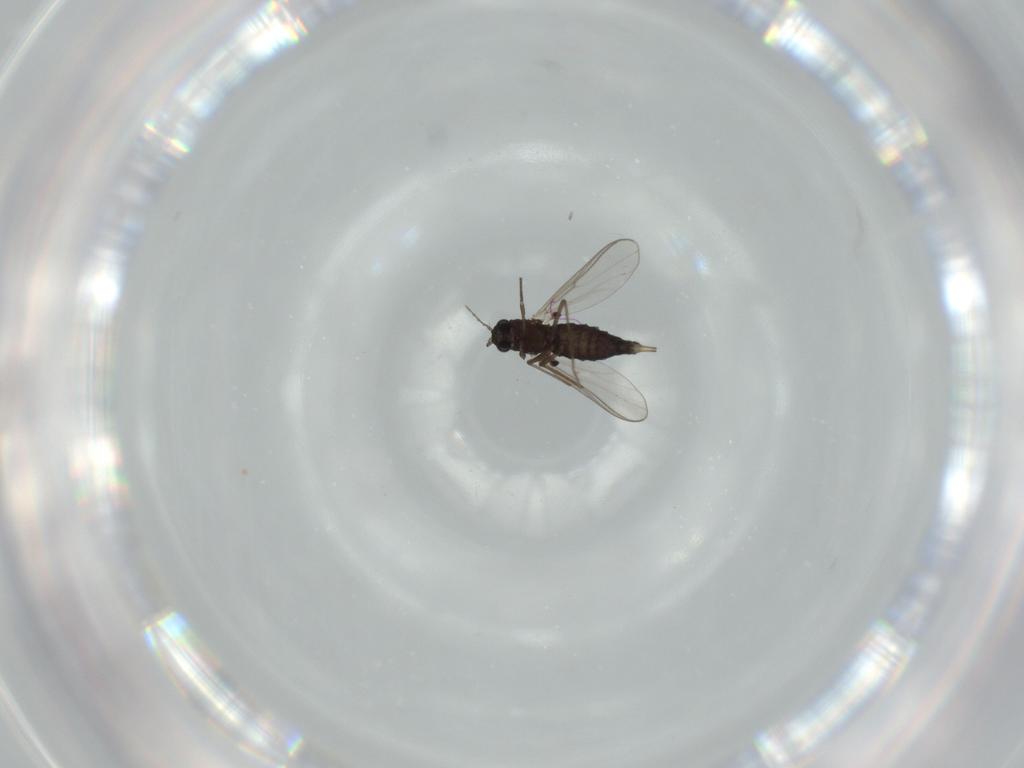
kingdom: Animalia
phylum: Arthropoda
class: Insecta
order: Diptera
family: Chironomidae
